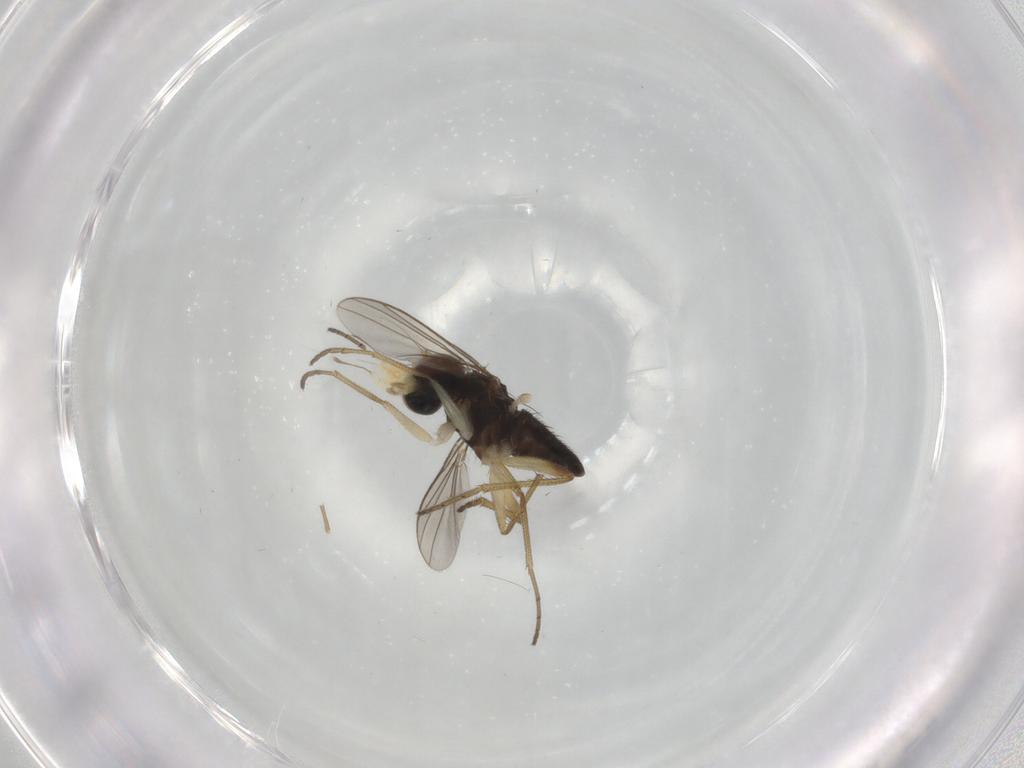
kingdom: Animalia
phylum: Arthropoda
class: Insecta
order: Diptera
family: Dolichopodidae
